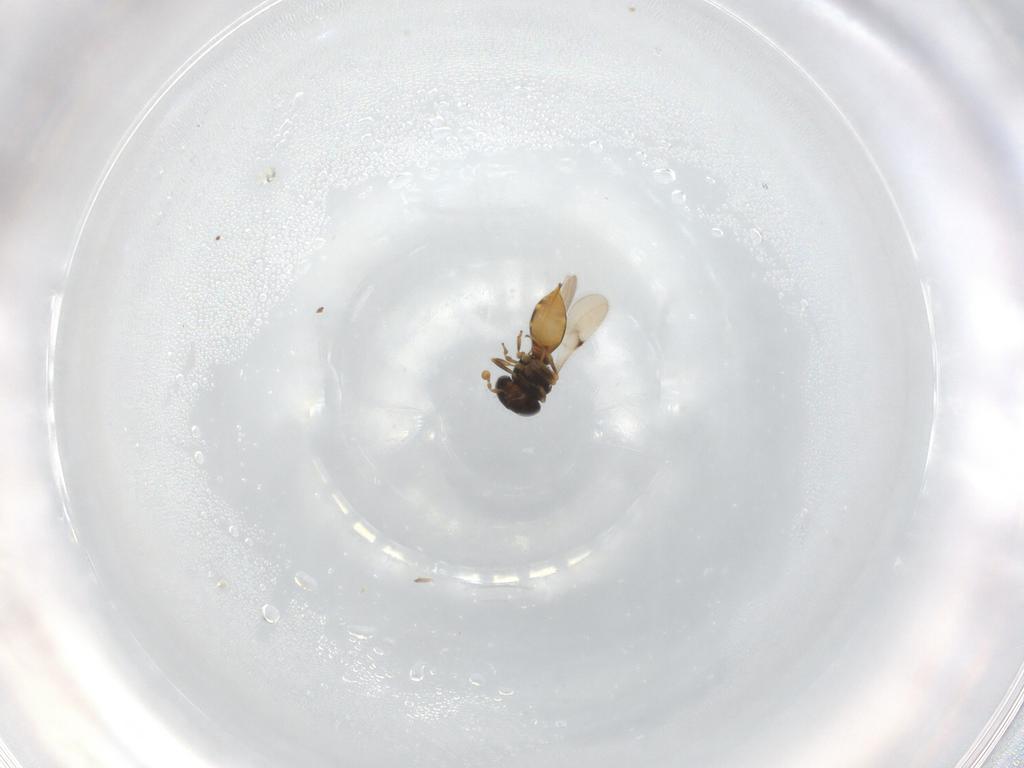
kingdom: Animalia
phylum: Arthropoda
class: Insecta
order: Hymenoptera
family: Scelionidae
